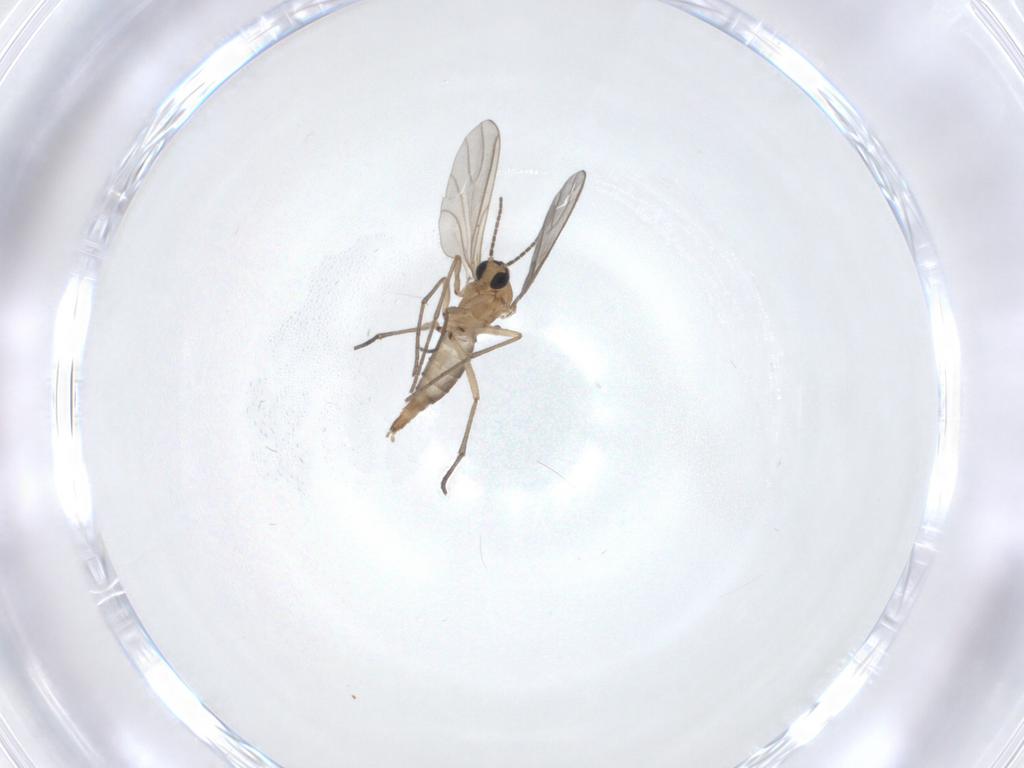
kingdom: Animalia
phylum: Arthropoda
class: Insecta
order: Diptera
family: Sciaridae
